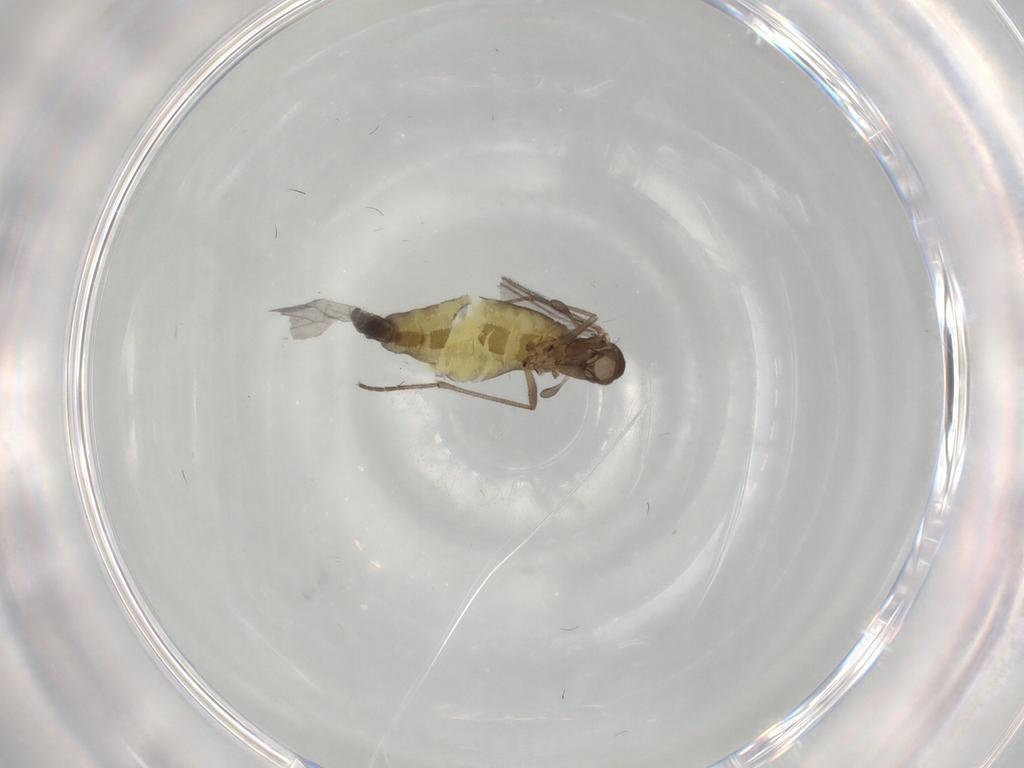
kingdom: Animalia
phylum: Arthropoda
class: Insecta
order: Diptera
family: Sciaridae
